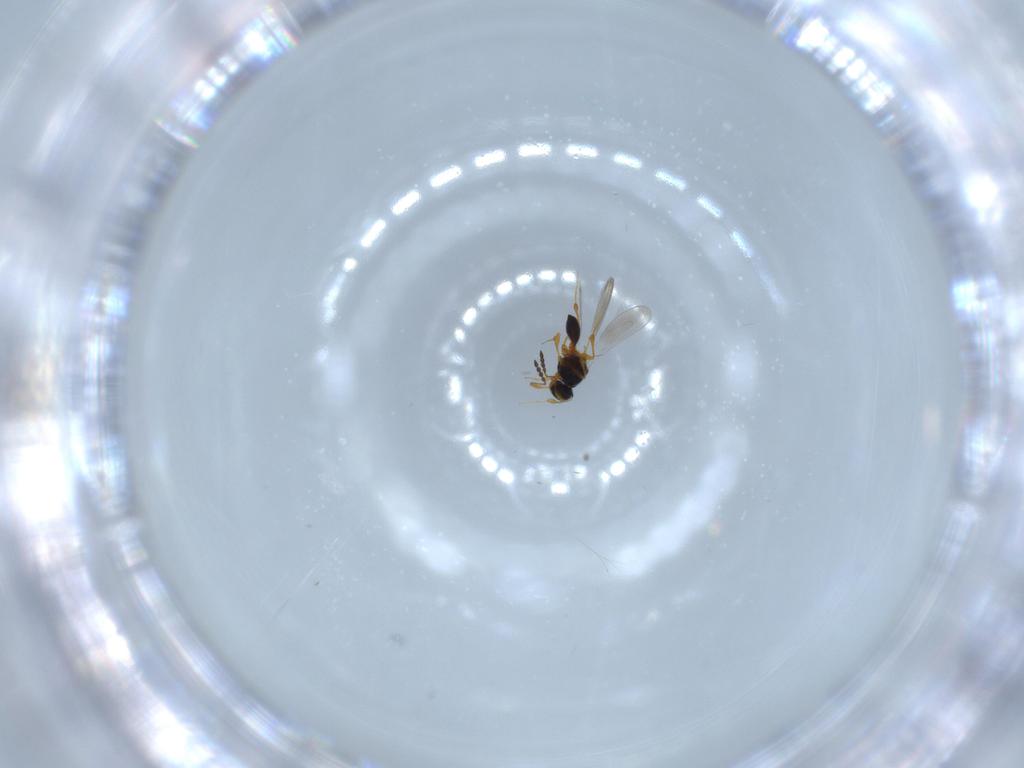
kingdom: Animalia
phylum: Arthropoda
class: Insecta
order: Hymenoptera
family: Platygastridae
